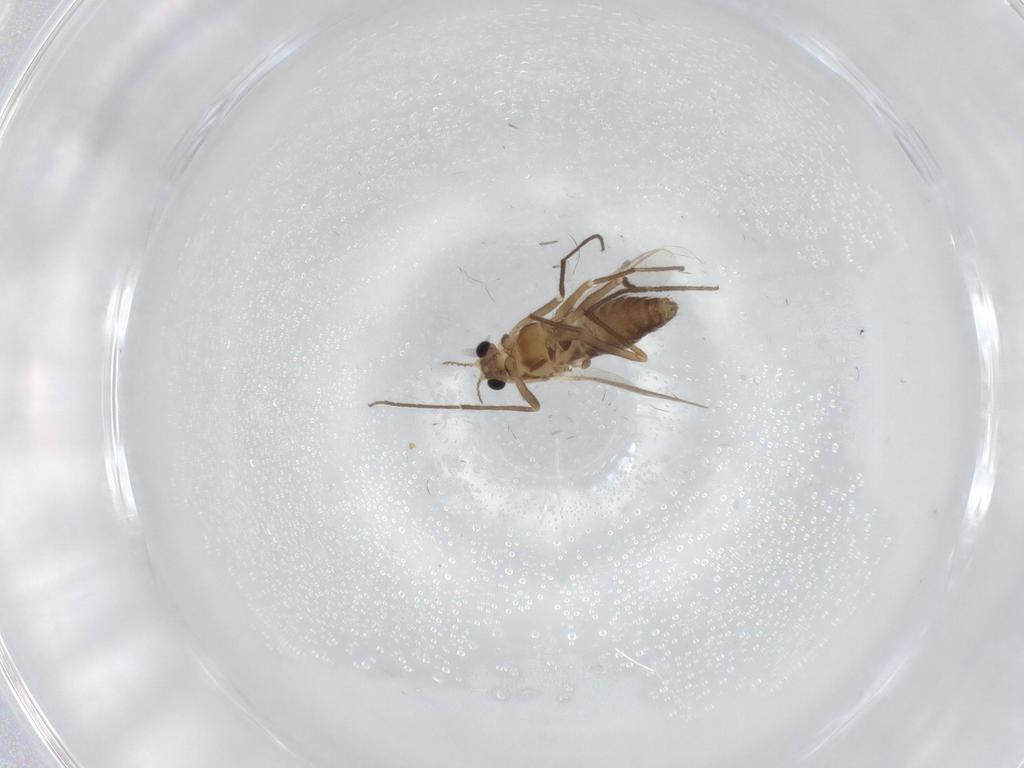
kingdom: Animalia
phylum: Arthropoda
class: Insecta
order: Diptera
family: Chironomidae
